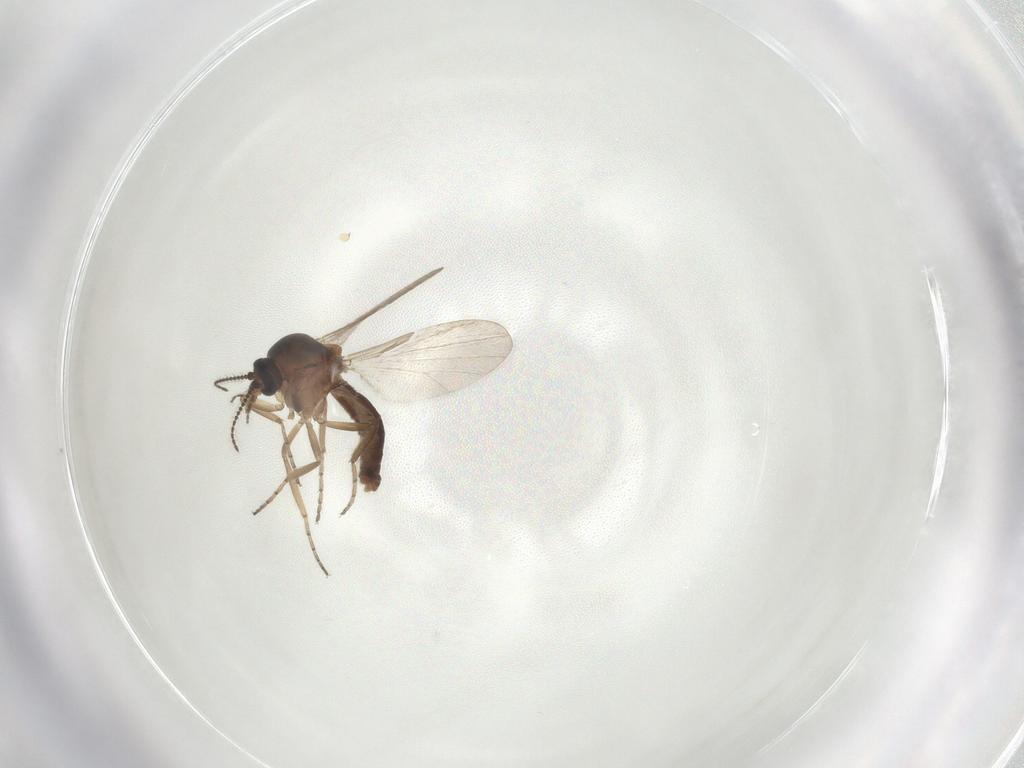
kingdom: Animalia
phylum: Arthropoda
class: Insecta
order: Diptera
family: Ceratopogonidae
